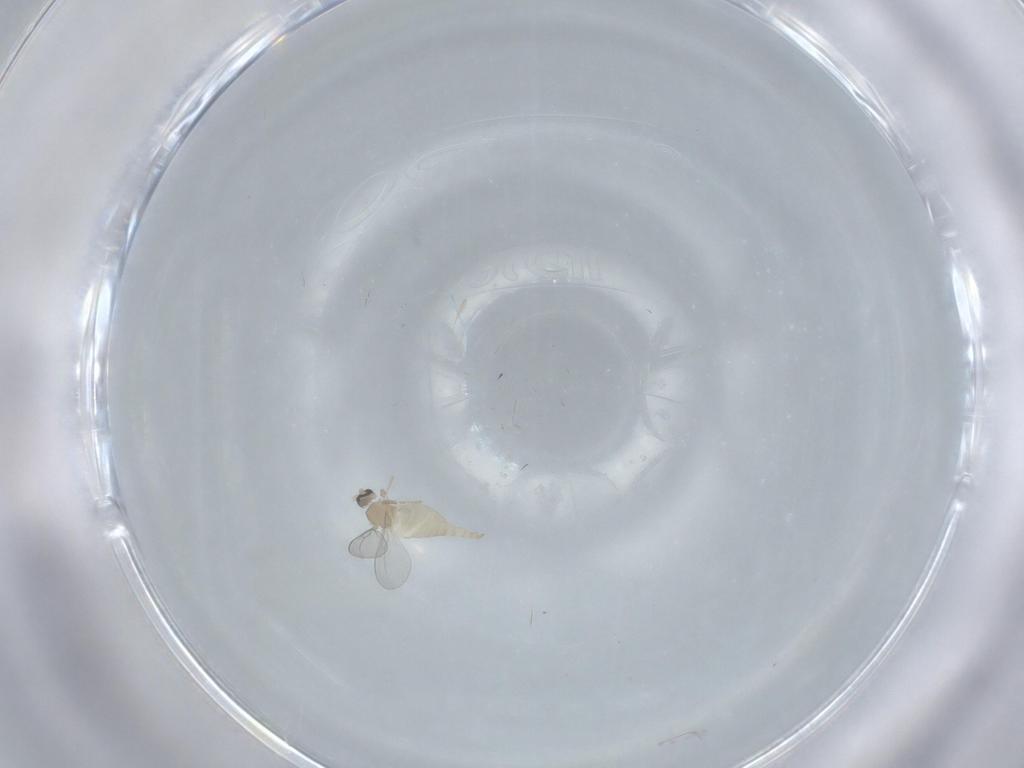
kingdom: Animalia
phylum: Arthropoda
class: Insecta
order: Diptera
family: Cecidomyiidae
